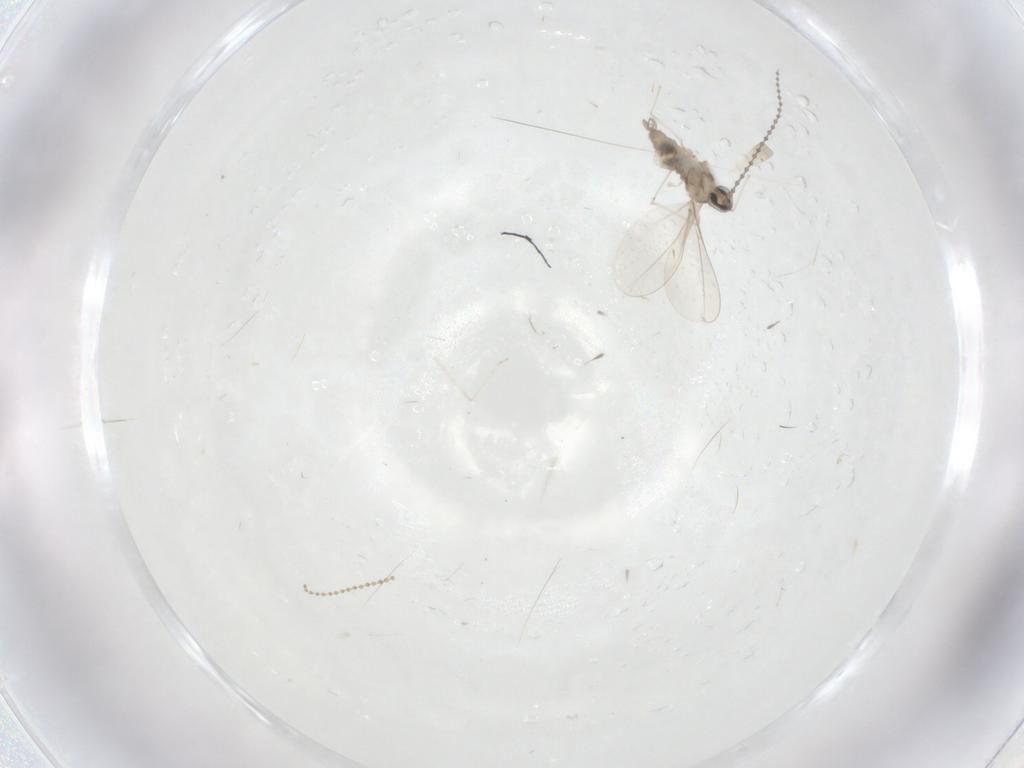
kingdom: Animalia
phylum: Arthropoda
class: Insecta
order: Diptera
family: Cecidomyiidae
